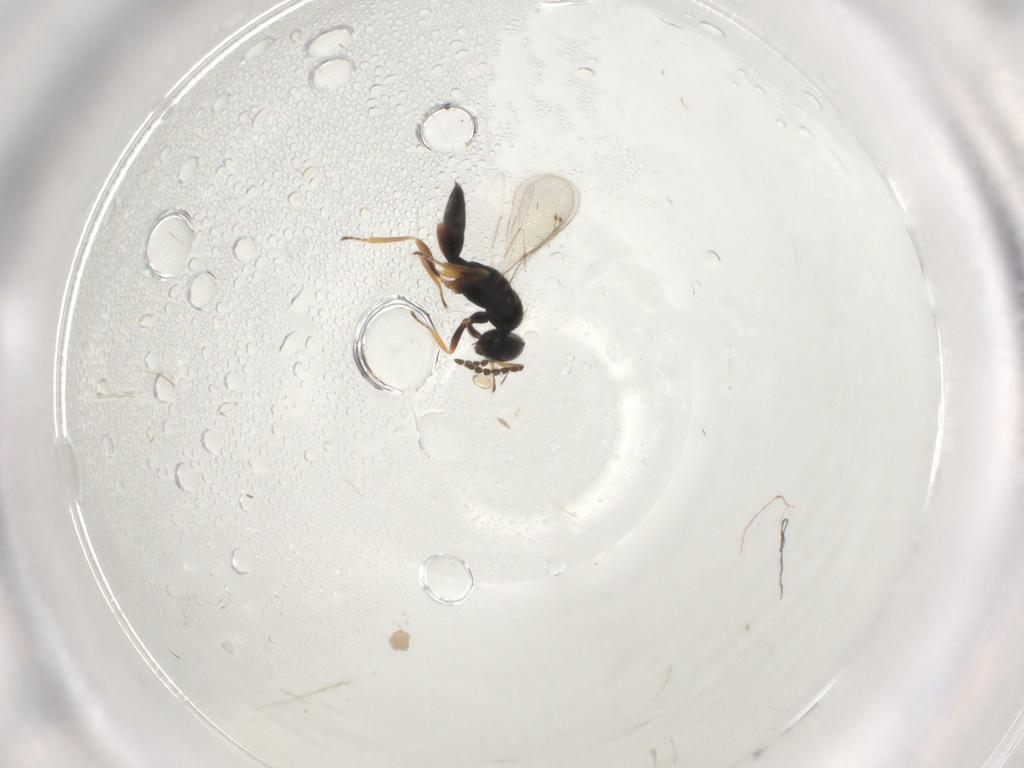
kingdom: Animalia
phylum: Arthropoda
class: Insecta
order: Hymenoptera
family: Eulophidae
